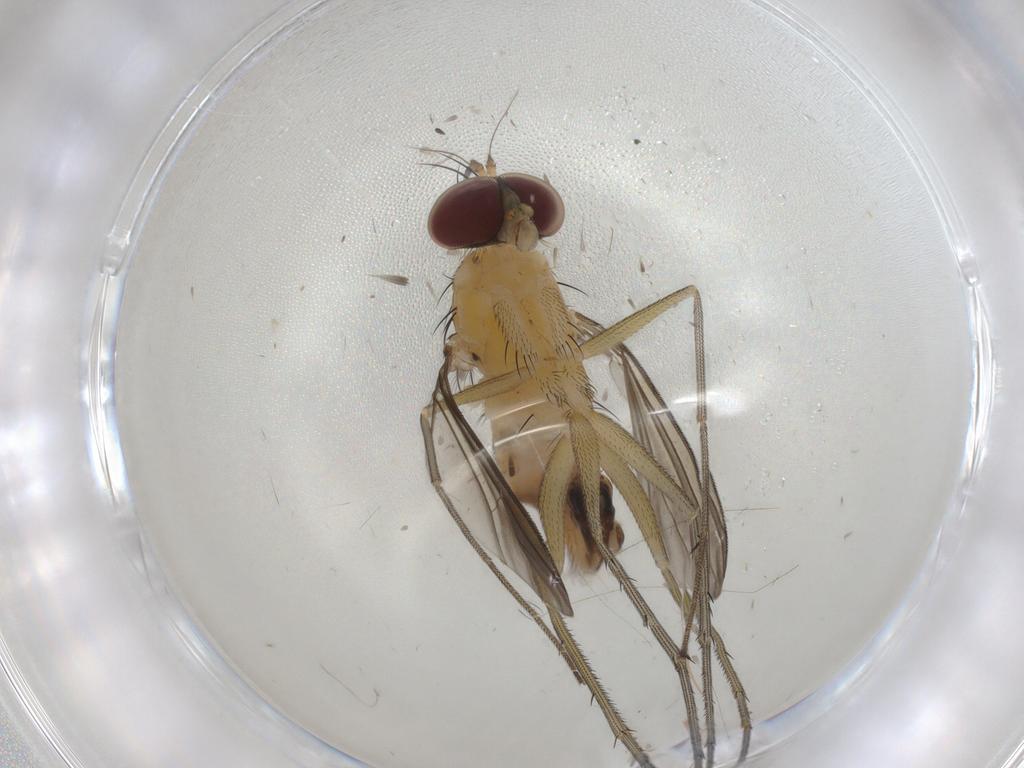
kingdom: Animalia
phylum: Arthropoda
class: Insecta
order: Diptera
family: Dolichopodidae
